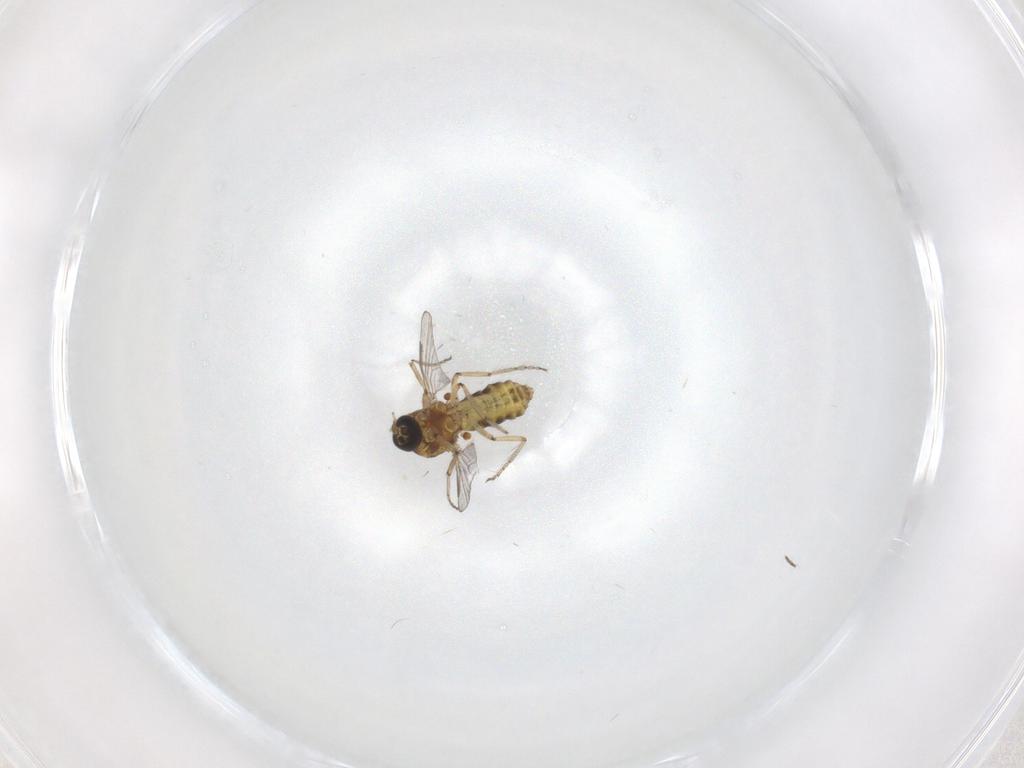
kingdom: Animalia
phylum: Arthropoda
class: Insecta
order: Diptera
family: Ceratopogonidae
